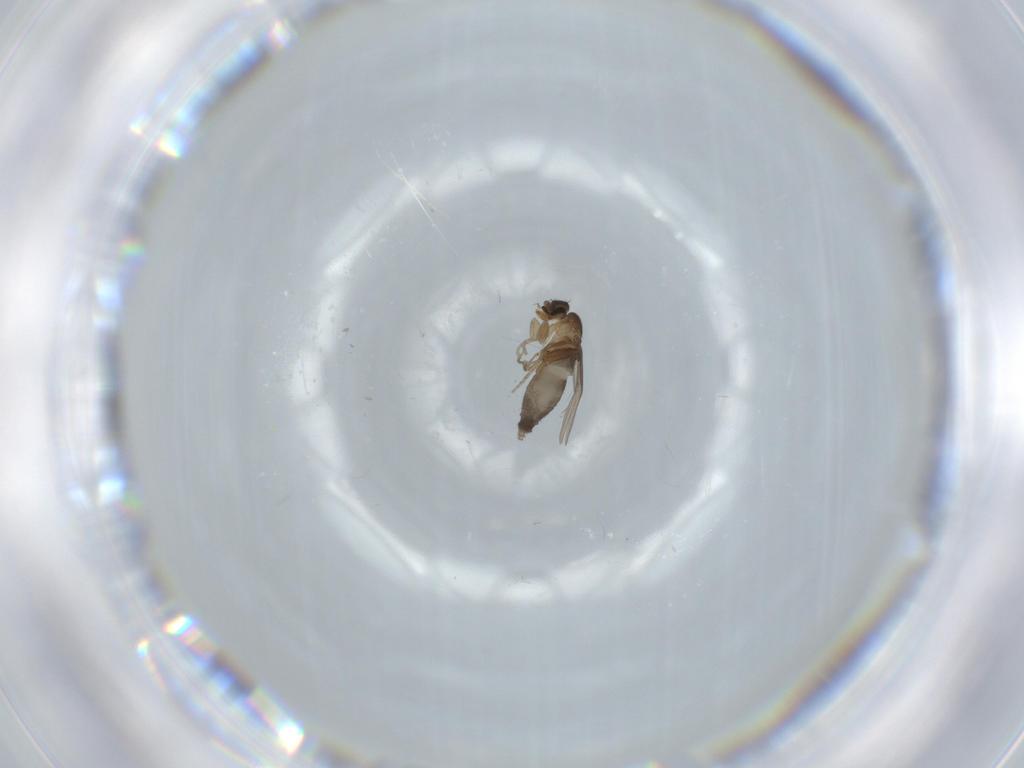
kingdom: Animalia
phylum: Arthropoda
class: Insecta
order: Diptera
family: Phoridae
